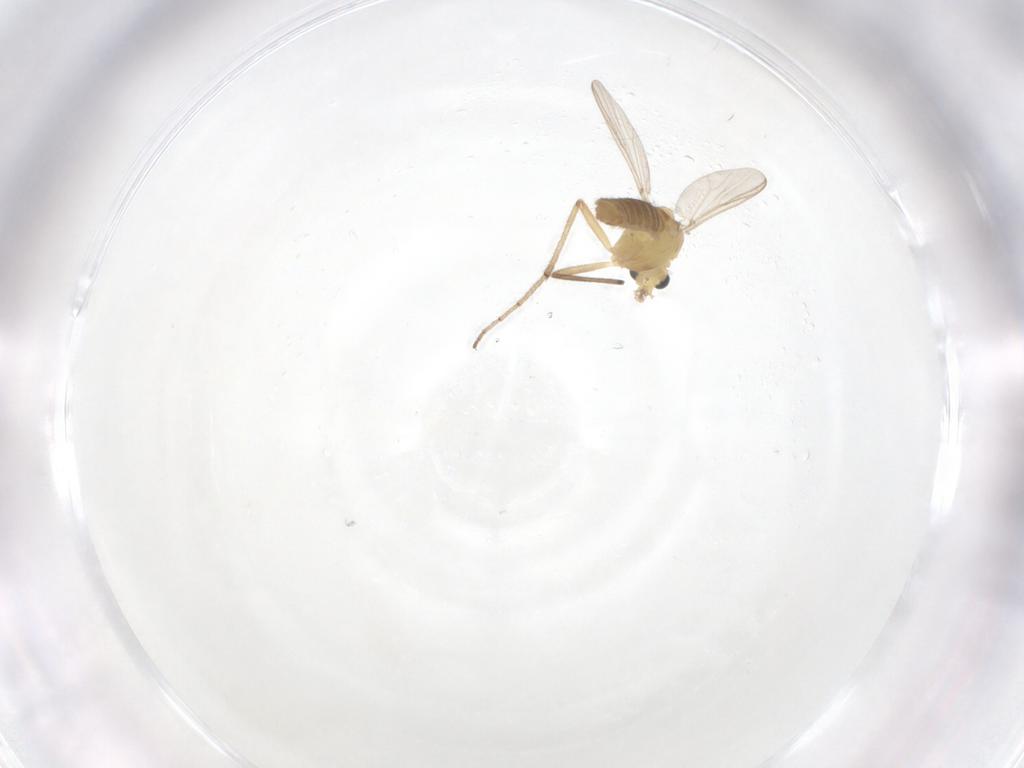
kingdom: Animalia
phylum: Arthropoda
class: Insecta
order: Diptera
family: Chironomidae
